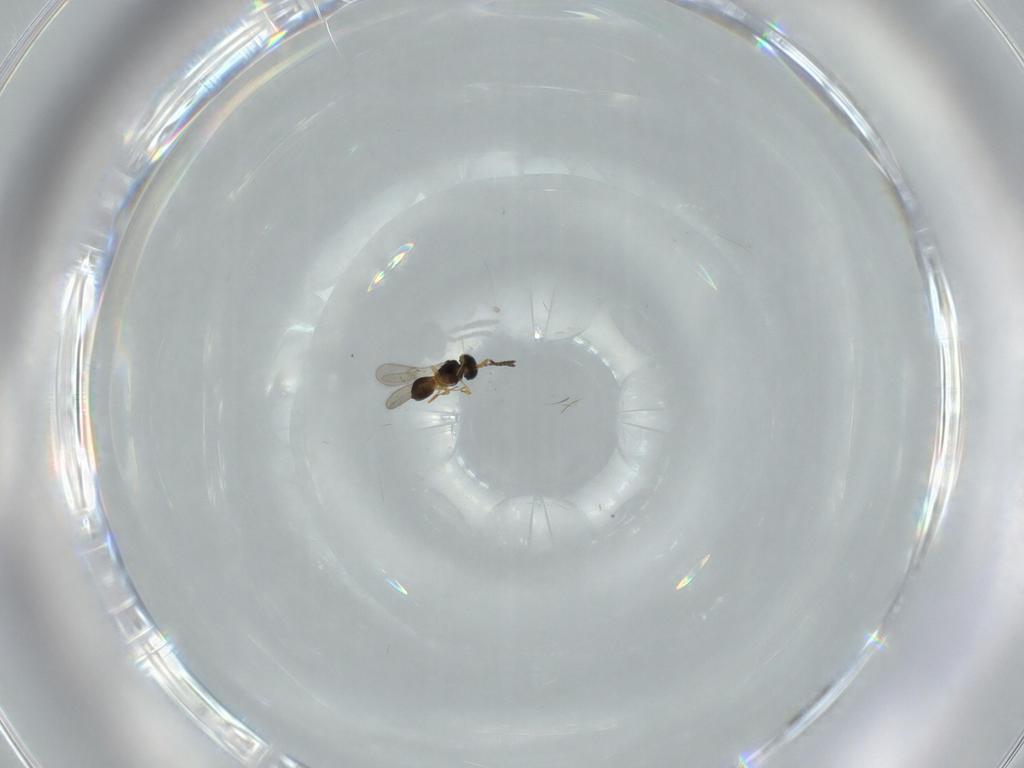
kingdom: Animalia
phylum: Arthropoda
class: Insecta
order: Hymenoptera
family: Scelionidae
